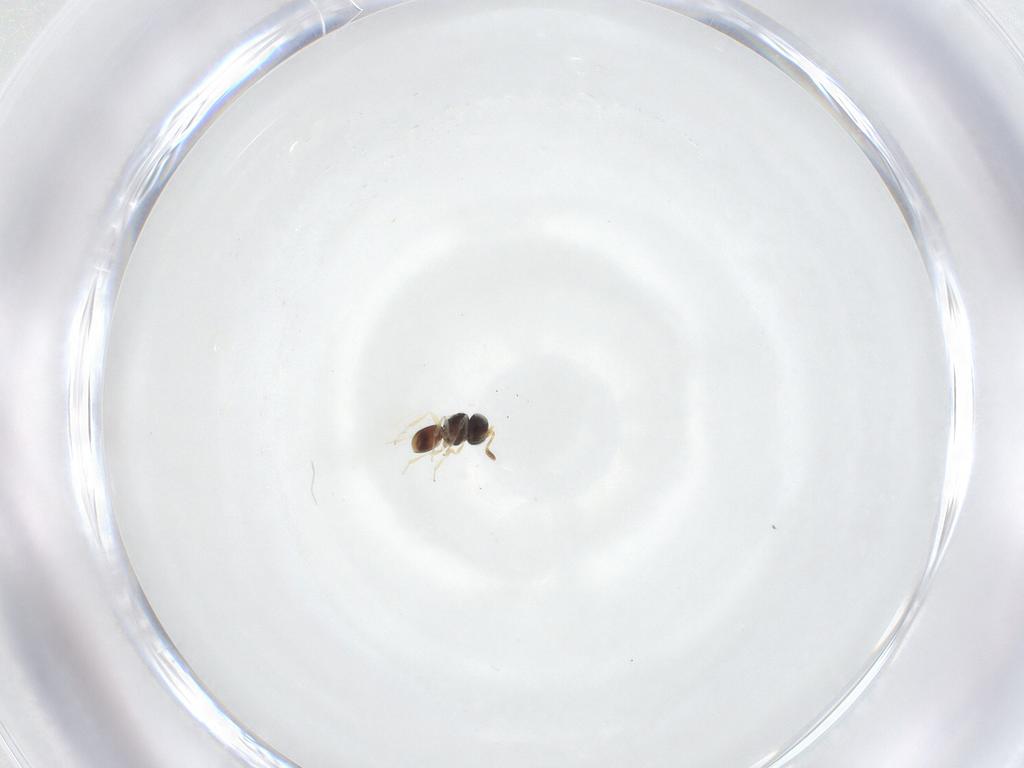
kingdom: Animalia
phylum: Arthropoda
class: Insecta
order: Hymenoptera
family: Scelionidae
